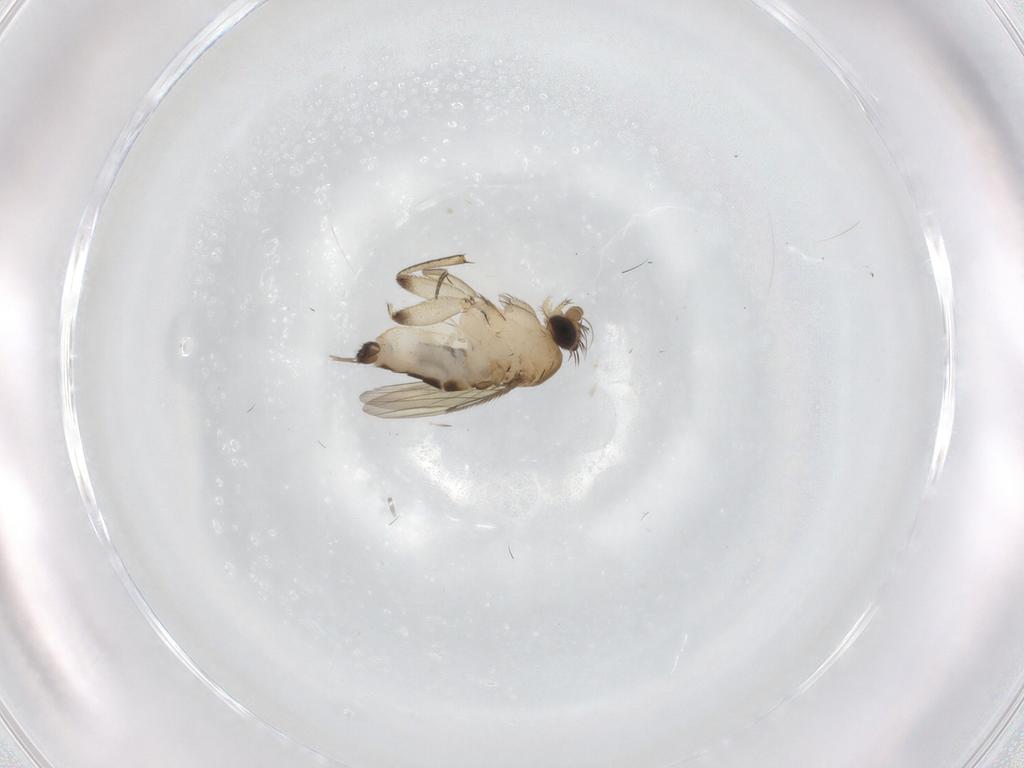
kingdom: Animalia
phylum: Arthropoda
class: Insecta
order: Diptera
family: Phoridae
